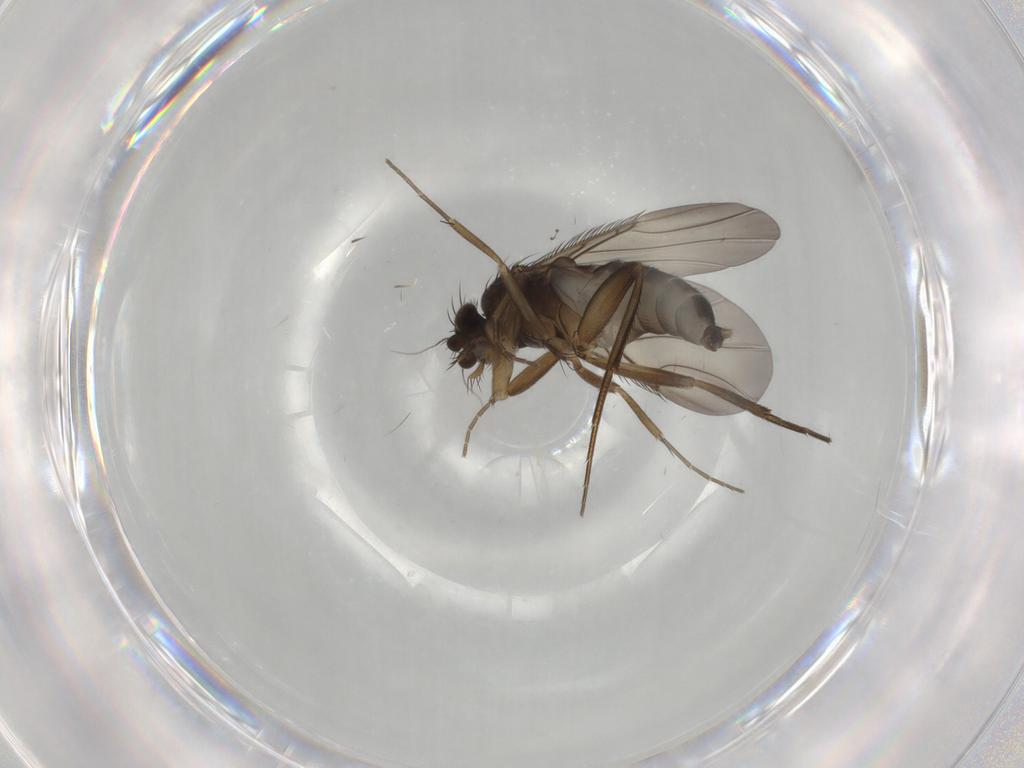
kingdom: Animalia
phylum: Arthropoda
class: Insecta
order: Diptera
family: Phoridae
